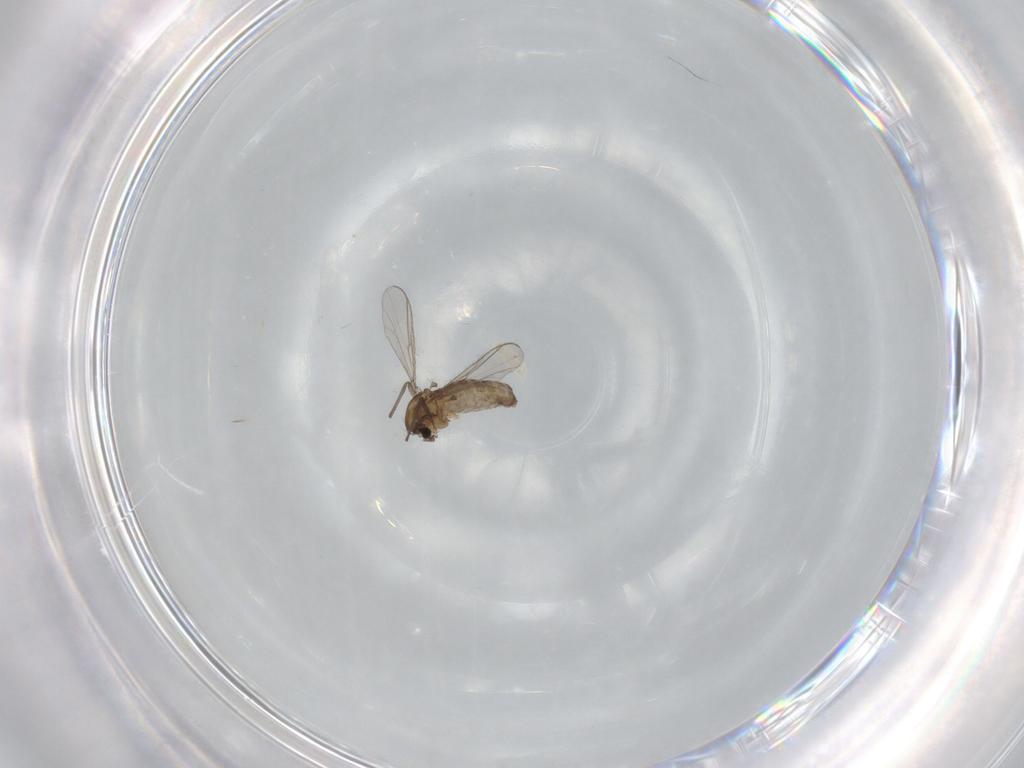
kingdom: Animalia
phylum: Arthropoda
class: Insecta
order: Diptera
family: Chironomidae
